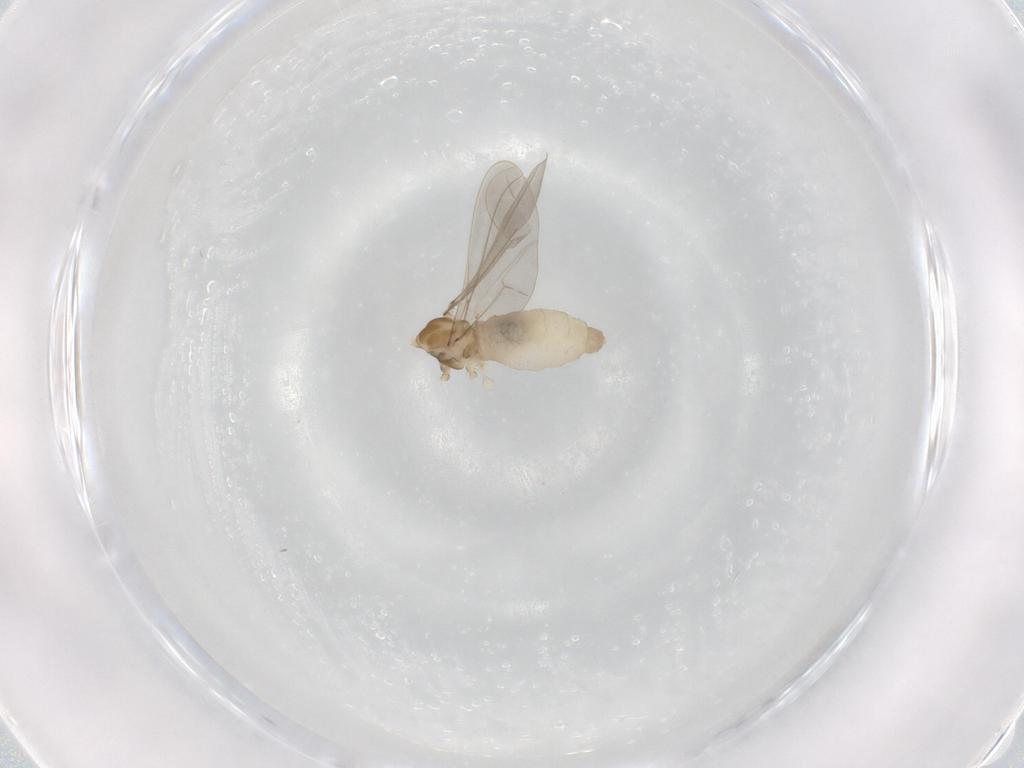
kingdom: Animalia
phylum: Arthropoda
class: Insecta
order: Diptera
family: Cecidomyiidae
